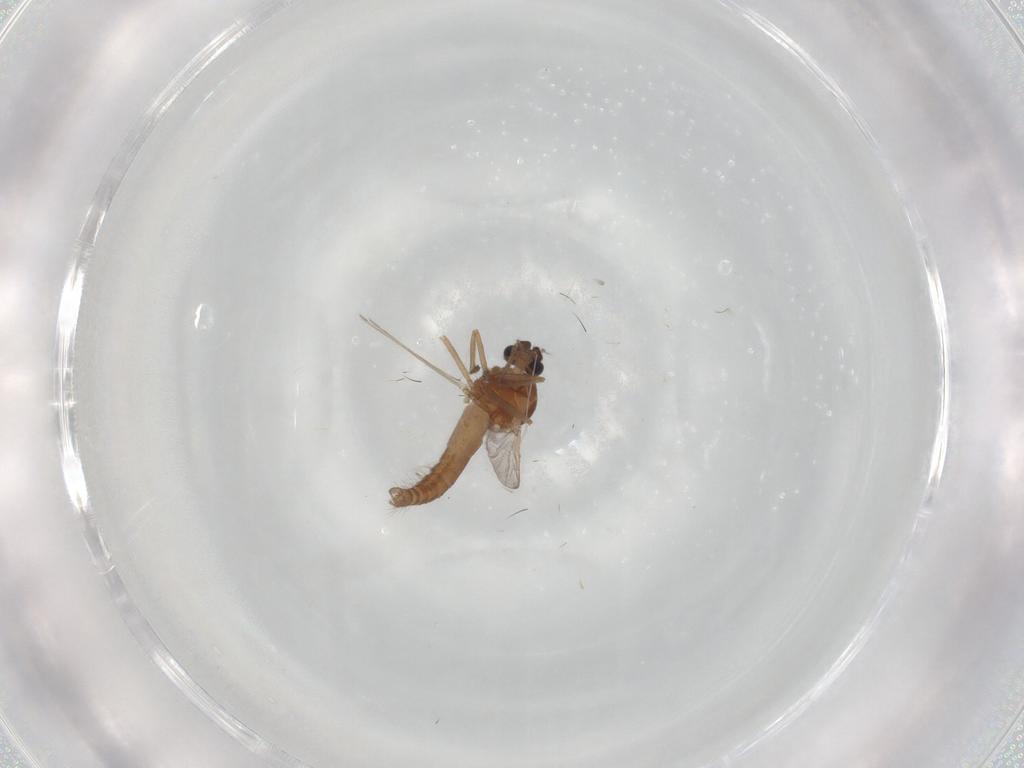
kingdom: Animalia
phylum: Arthropoda
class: Insecta
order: Diptera
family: Ceratopogonidae
